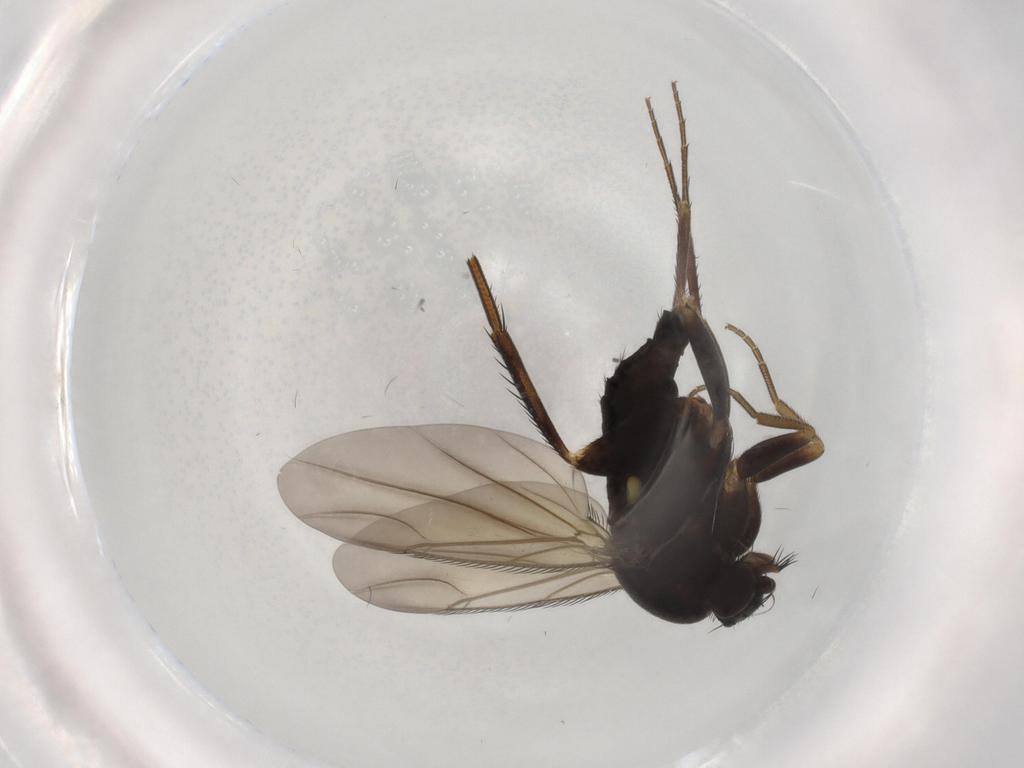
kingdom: Animalia
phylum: Arthropoda
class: Insecta
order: Diptera
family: Phoridae
